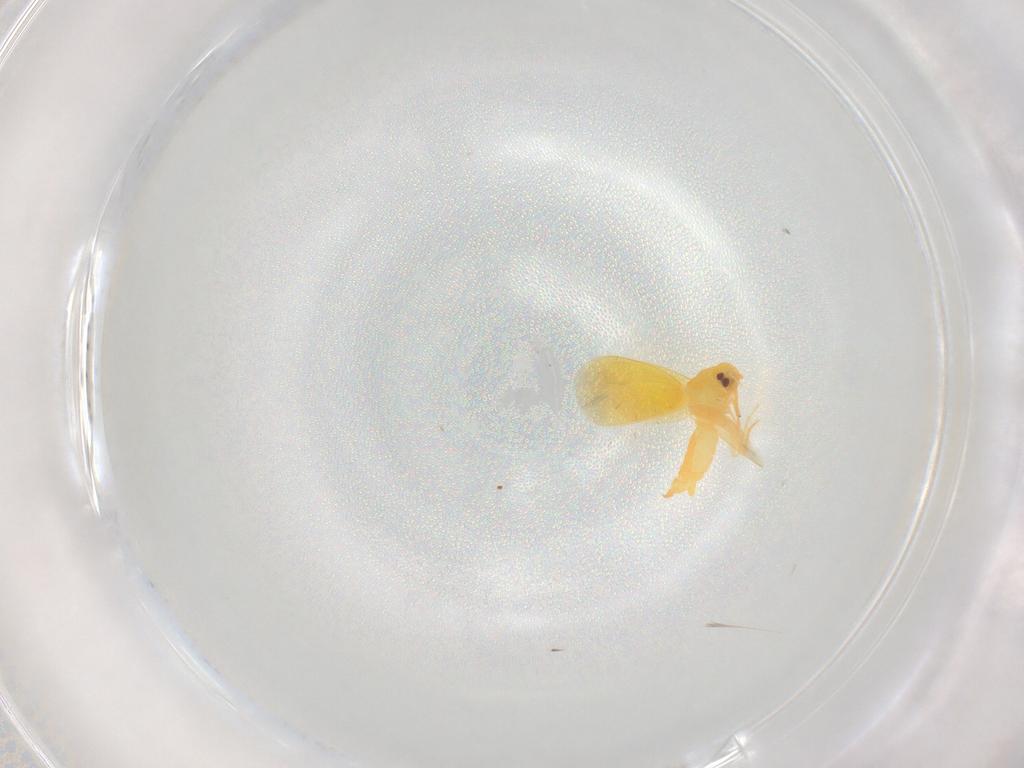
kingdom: Animalia
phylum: Arthropoda
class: Insecta
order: Hemiptera
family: Aleyrodidae
